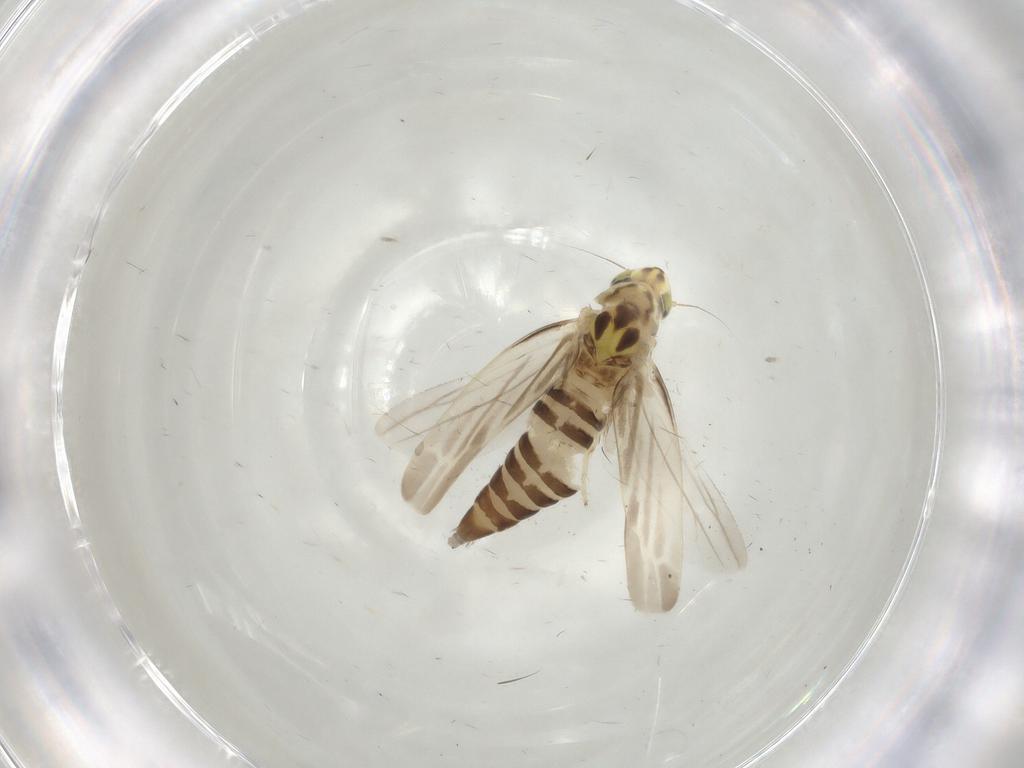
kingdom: Animalia
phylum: Arthropoda
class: Insecta
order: Hemiptera
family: Cicadellidae
